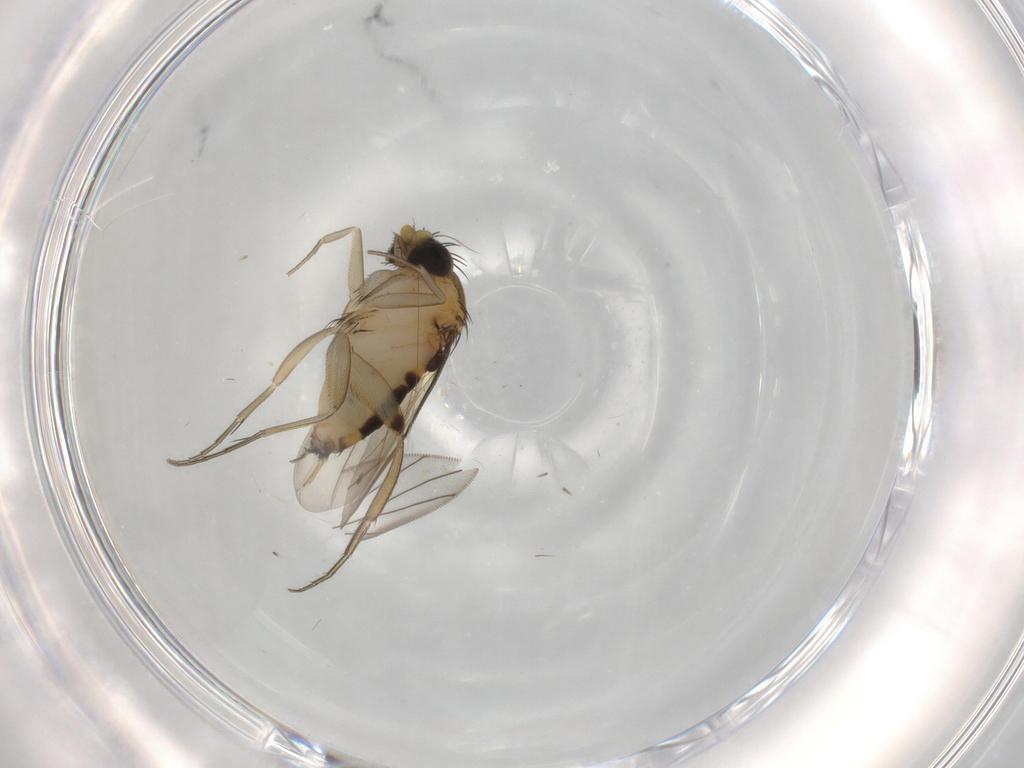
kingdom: Animalia
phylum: Arthropoda
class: Insecta
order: Diptera
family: Phoridae
